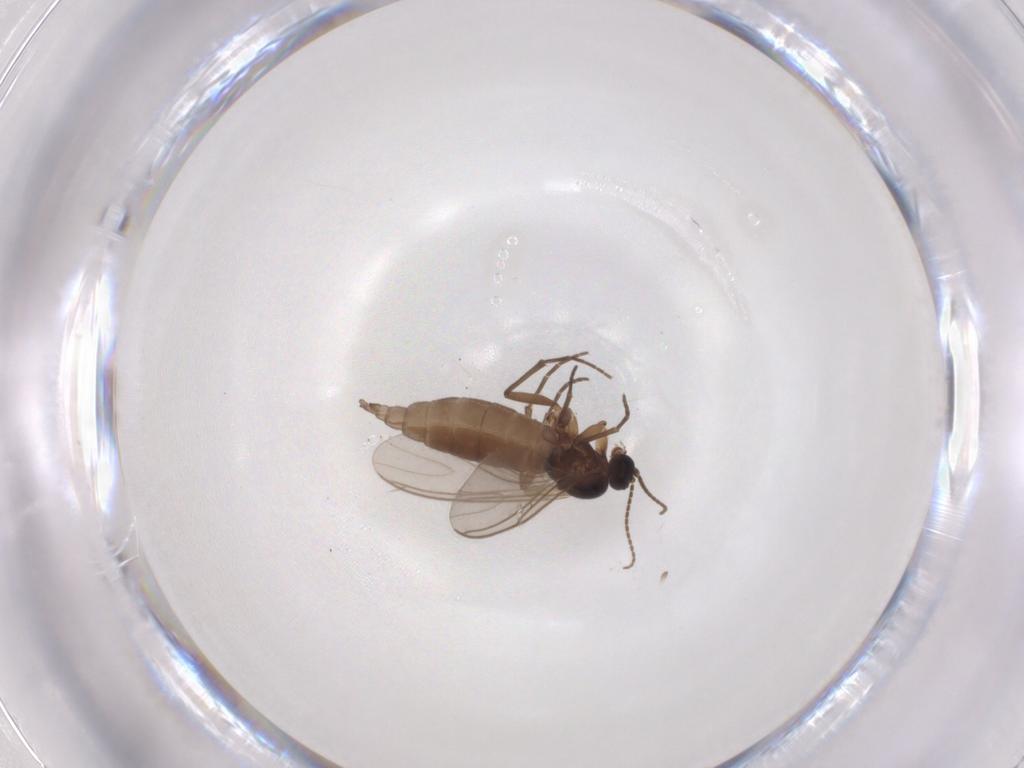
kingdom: Animalia
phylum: Arthropoda
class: Insecta
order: Diptera
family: Sciaridae
